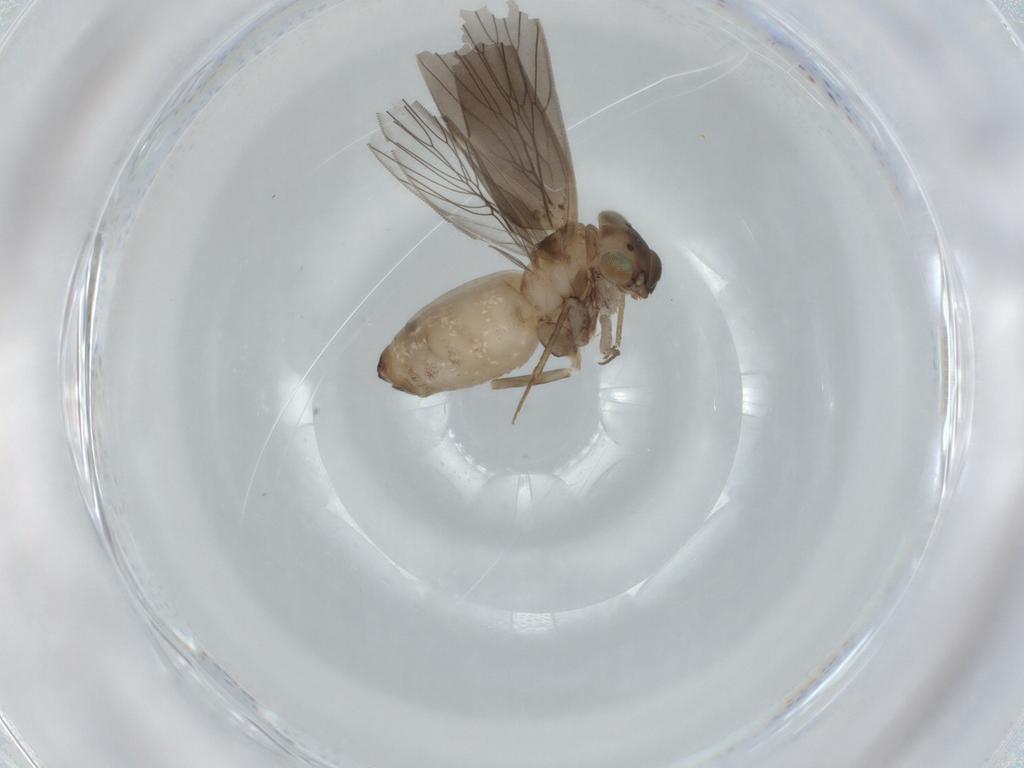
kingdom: Animalia
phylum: Arthropoda
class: Insecta
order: Psocodea
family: Lepidopsocidae
